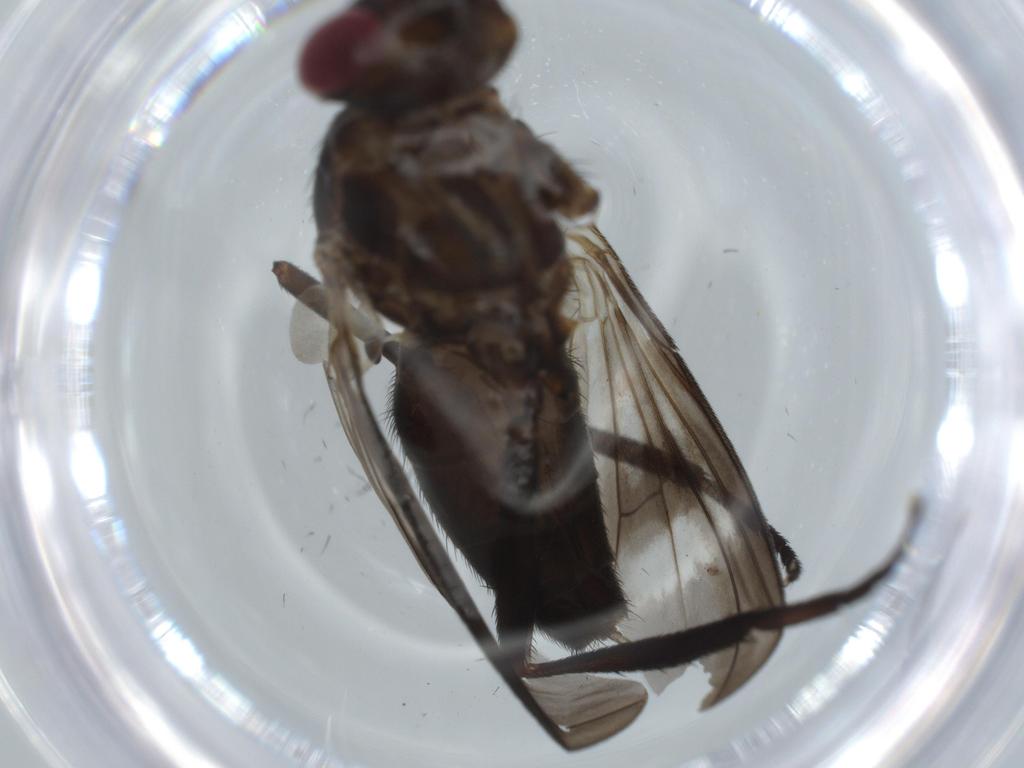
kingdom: Animalia
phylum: Arthropoda
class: Insecta
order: Diptera
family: Calliphoridae
